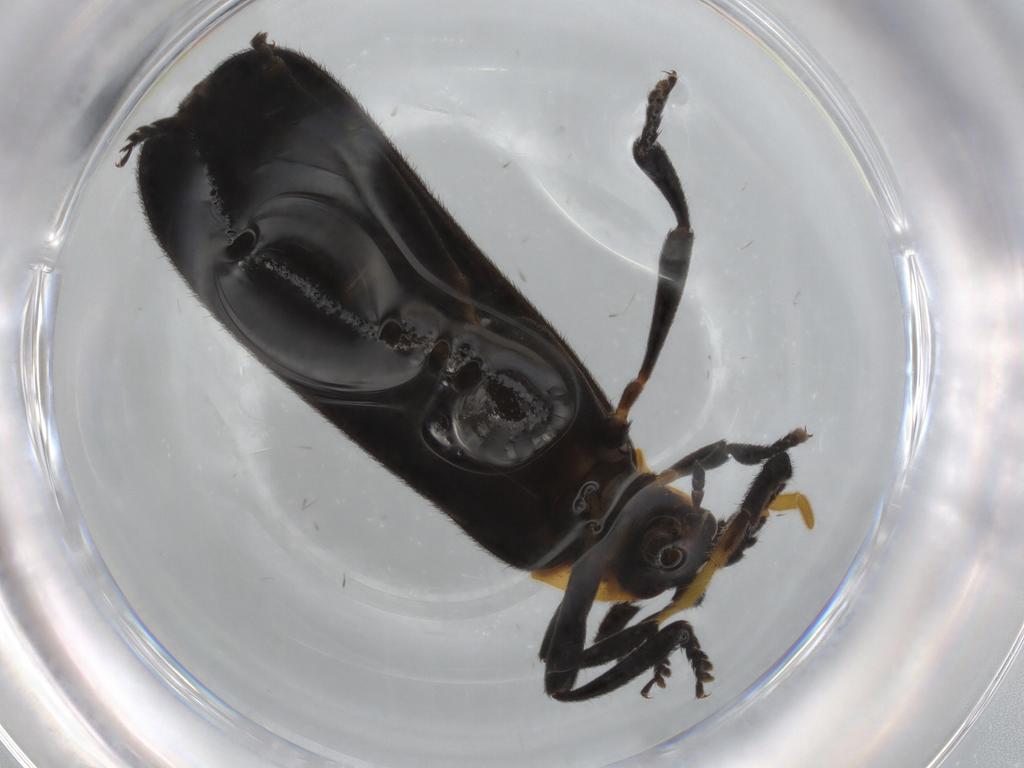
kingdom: Animalia
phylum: Arthropoda
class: Insecta
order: Coleoptera
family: Lycidae
